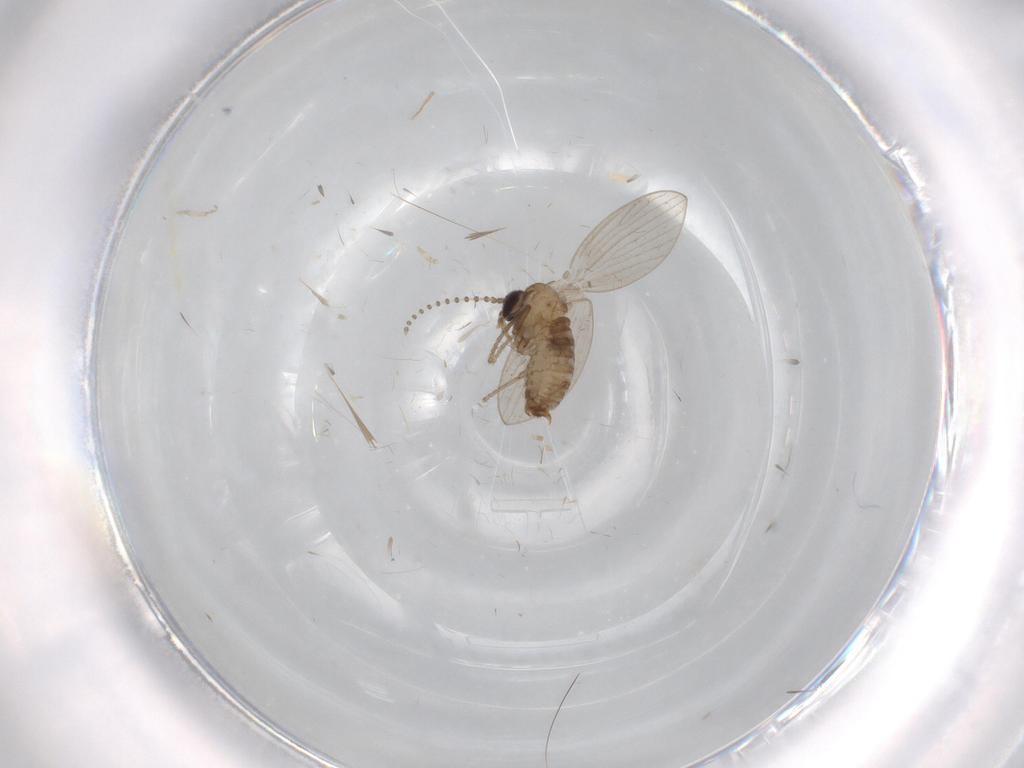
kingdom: Animalia
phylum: Arthropoda
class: Insecta
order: Diptera
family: Psychodidae
